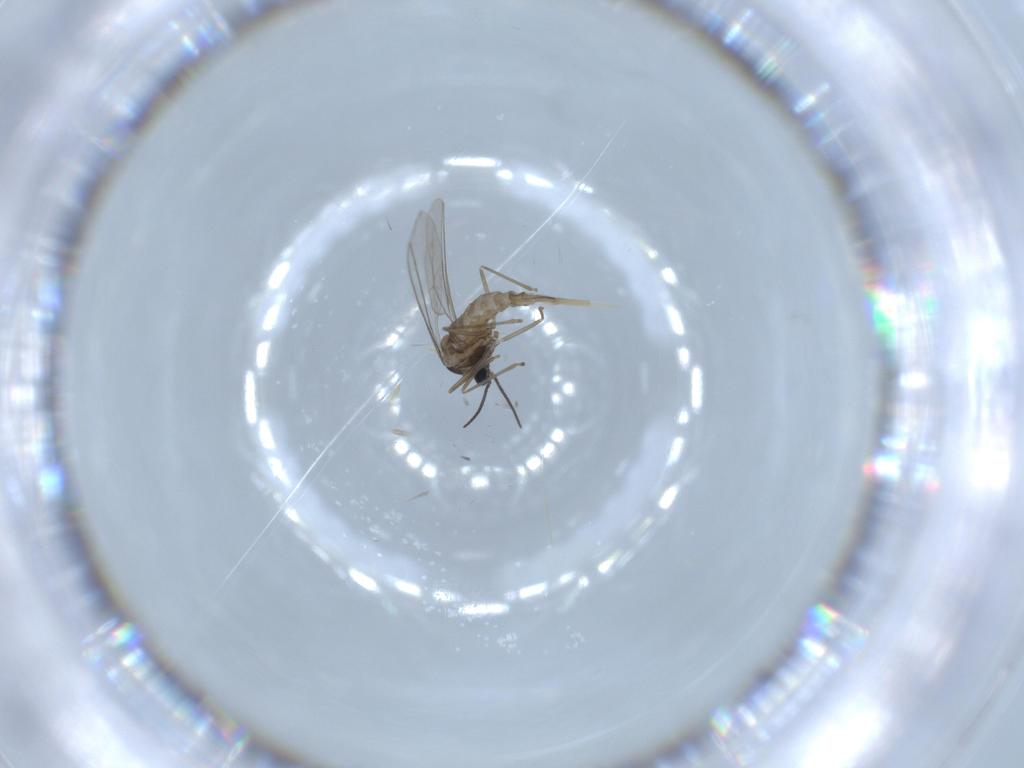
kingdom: Animalia
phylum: Arthropoda
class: Insecta
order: Diptera
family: Cecidomyiidae
